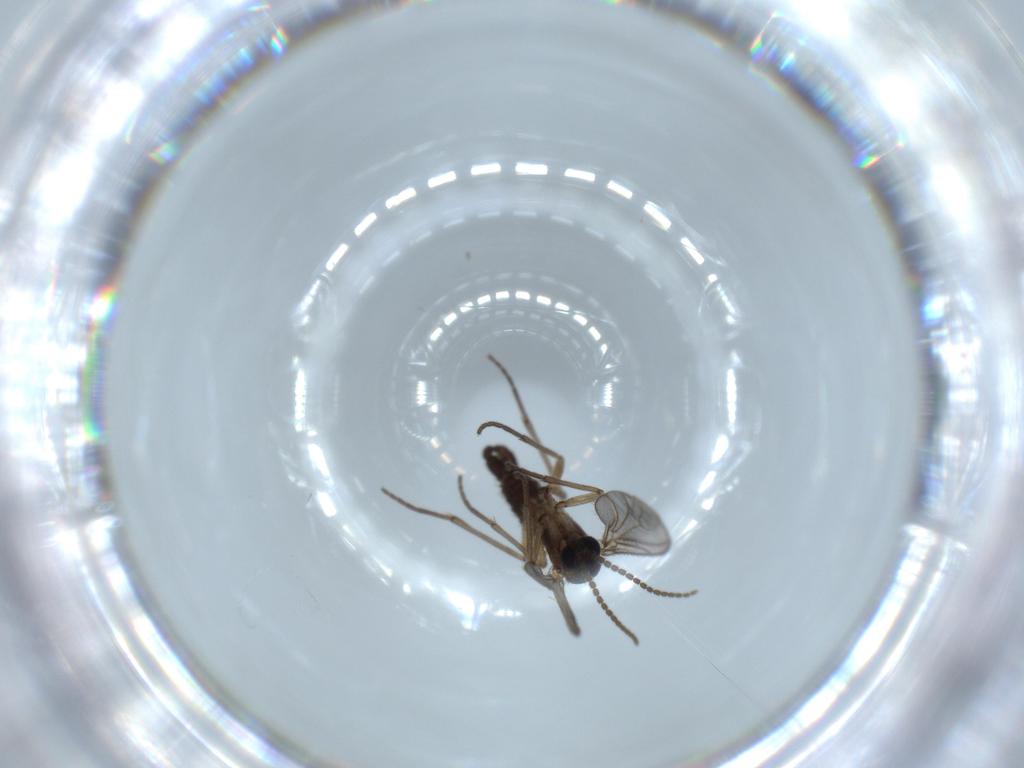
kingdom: Animalia
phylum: Arthropoda
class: Insecta
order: Diptera
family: Sciaridae
